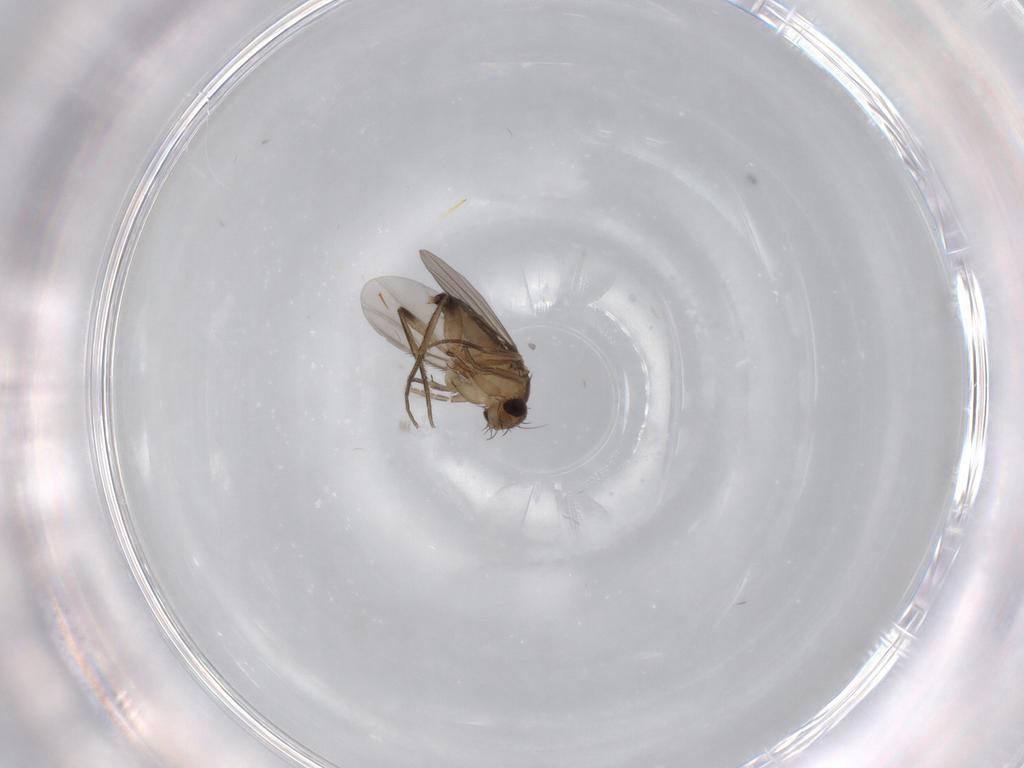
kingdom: Animalia
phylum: Arthropoda
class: Insecta
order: Diptera
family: Phoridae
